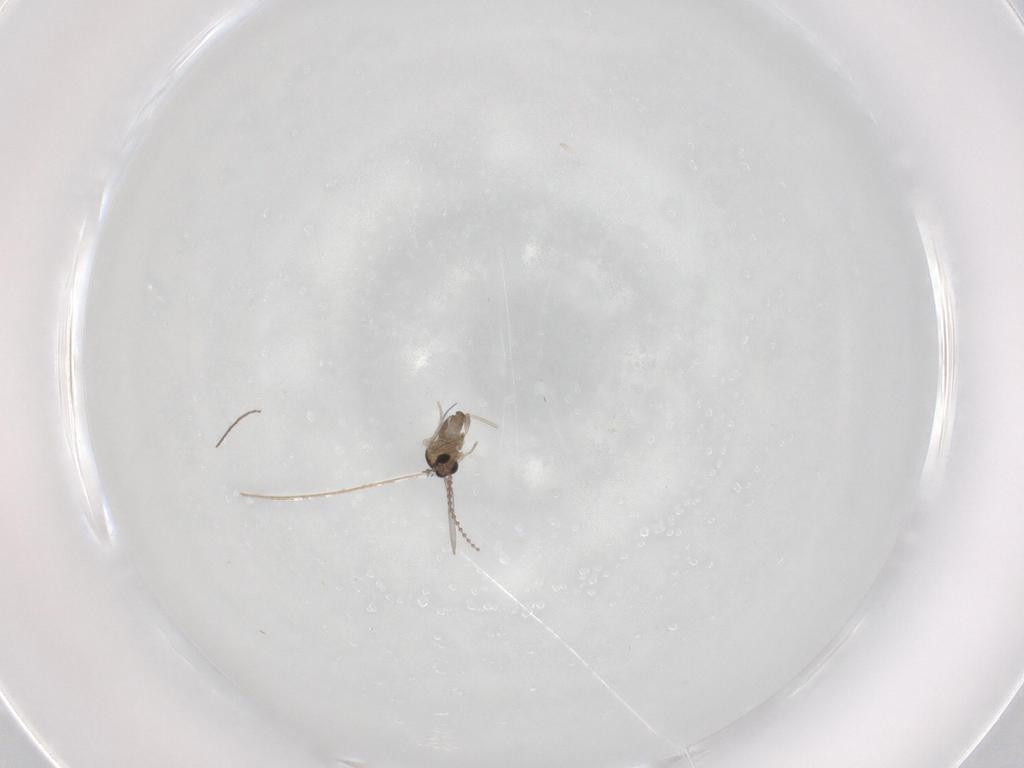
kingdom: Animalia
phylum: Arthropoda
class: Insecta
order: Diptera
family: Cecidomyiidae
